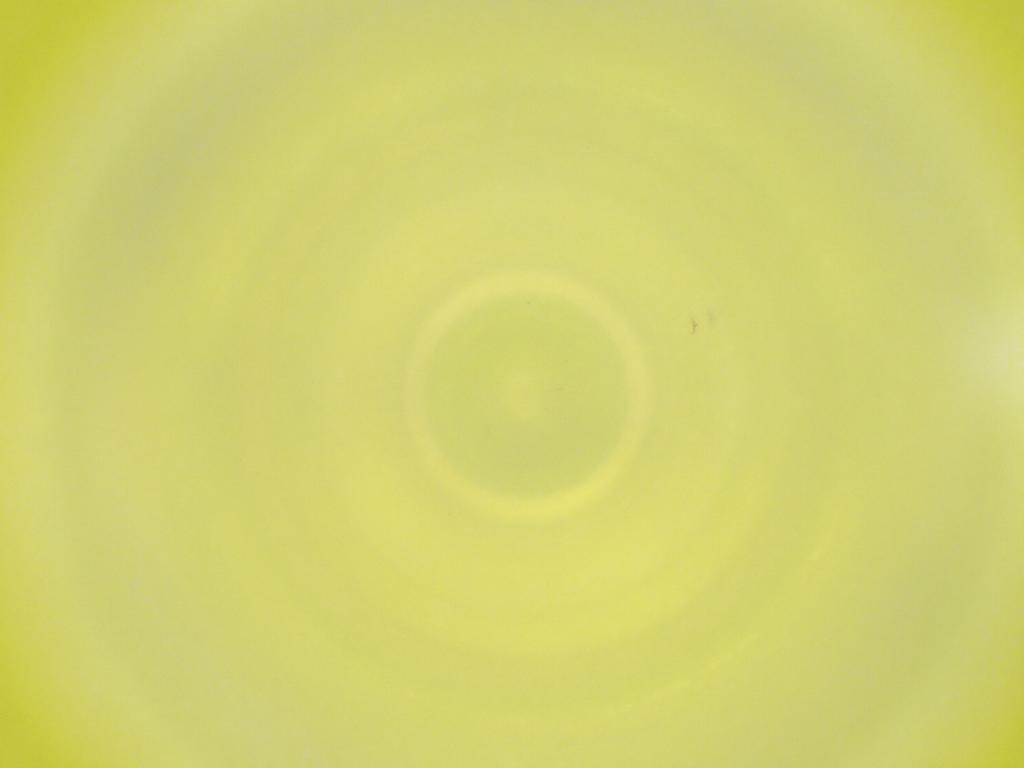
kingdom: Animalia
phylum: Arthropoda
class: Insecta
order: Diptera
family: Cecidomyiidae
